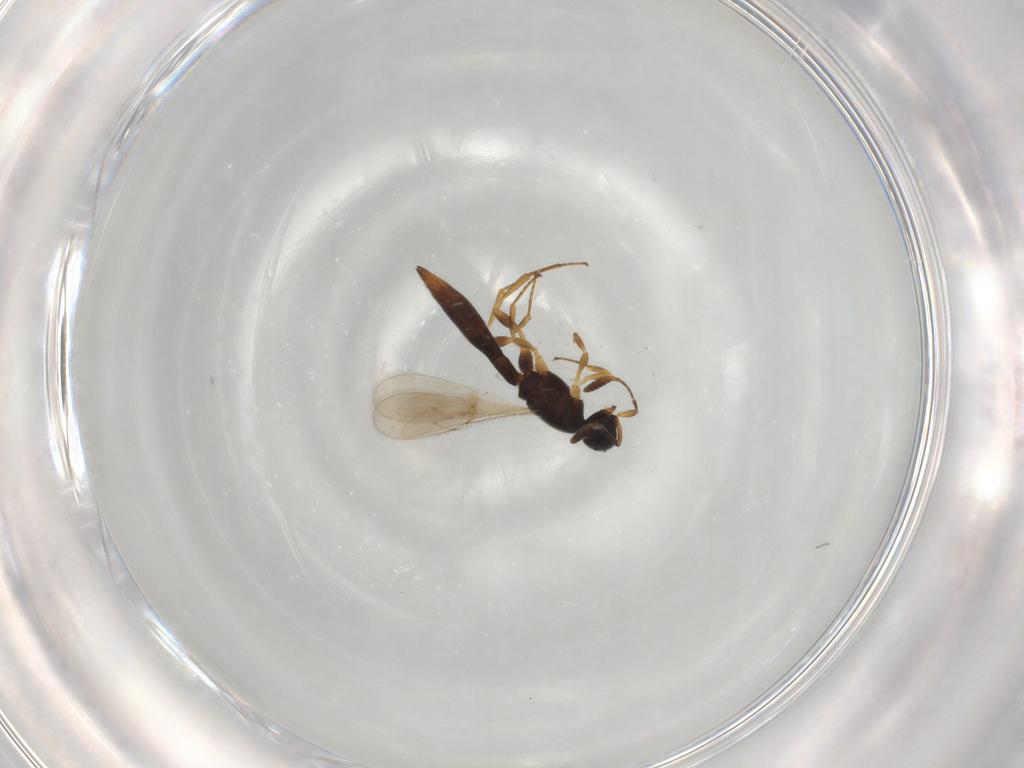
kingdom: Animalia
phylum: Arthropoda
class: Insecta
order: Hymenoptera
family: Scelionidae
